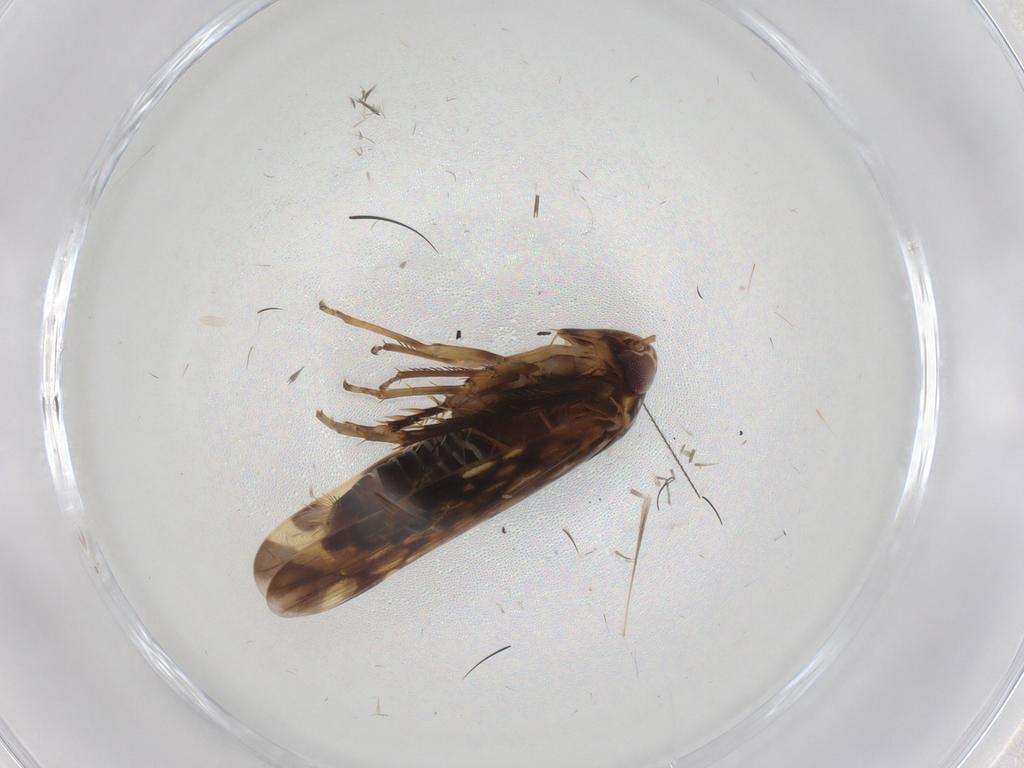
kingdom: Animalia
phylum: Arthropoda
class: Insecta
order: Hemiptera
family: Cicadellidae
